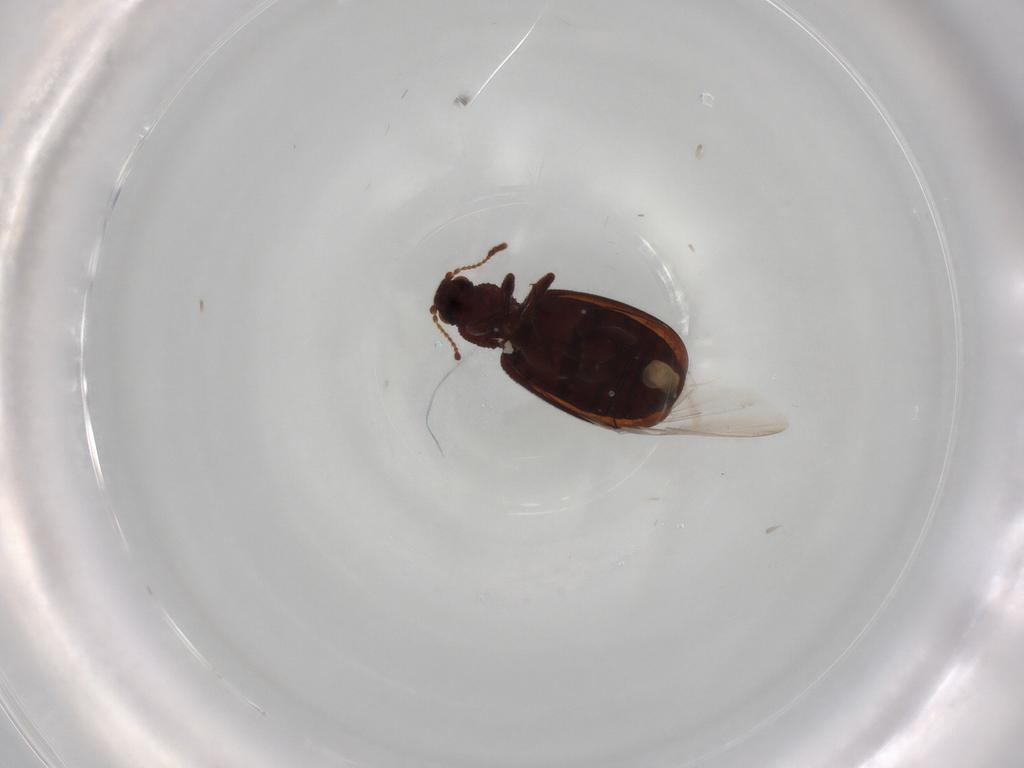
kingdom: Animalia
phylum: Arthropoda
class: Insecta
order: Coleoptera
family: Latridiidae
